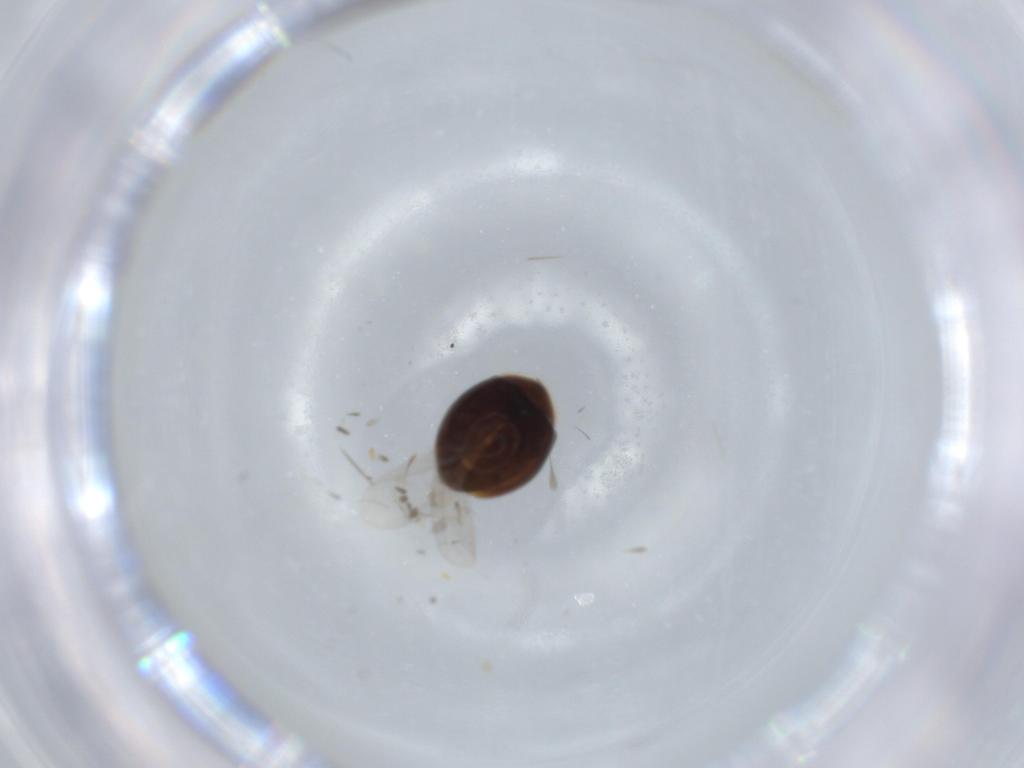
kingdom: Animalia
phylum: Arthropoda
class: Insecta
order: Coleoptera
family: Corylophidae
